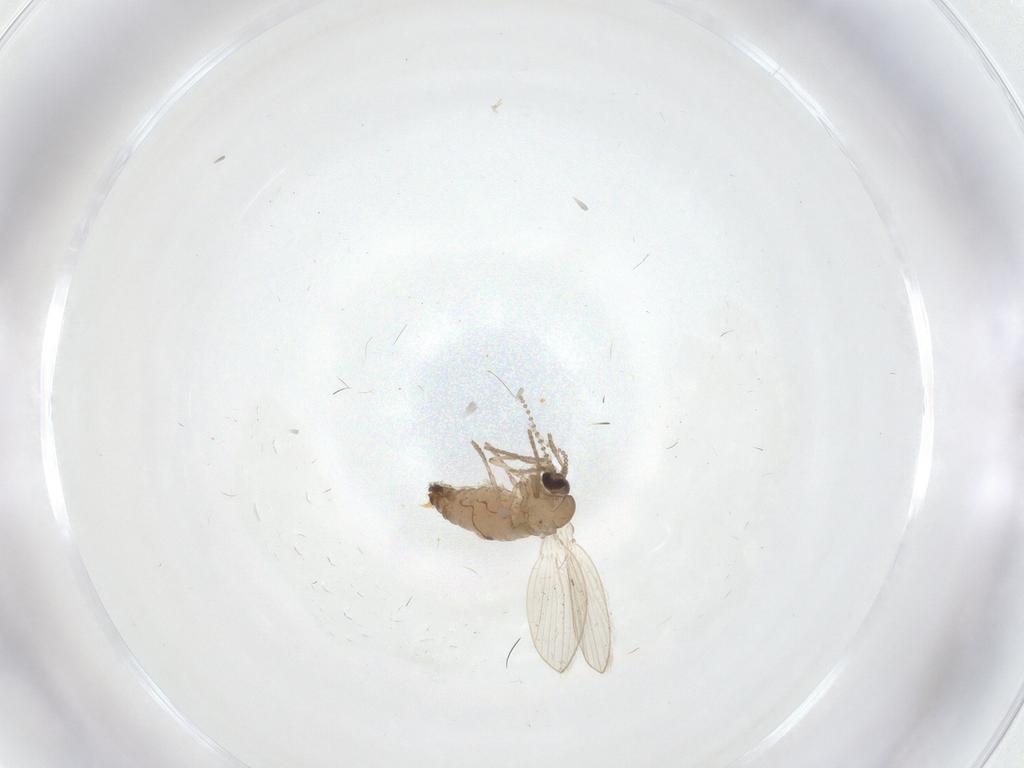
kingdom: Animalia
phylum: Arthropoda
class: Insecta
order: Diptera
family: Psychodidae
